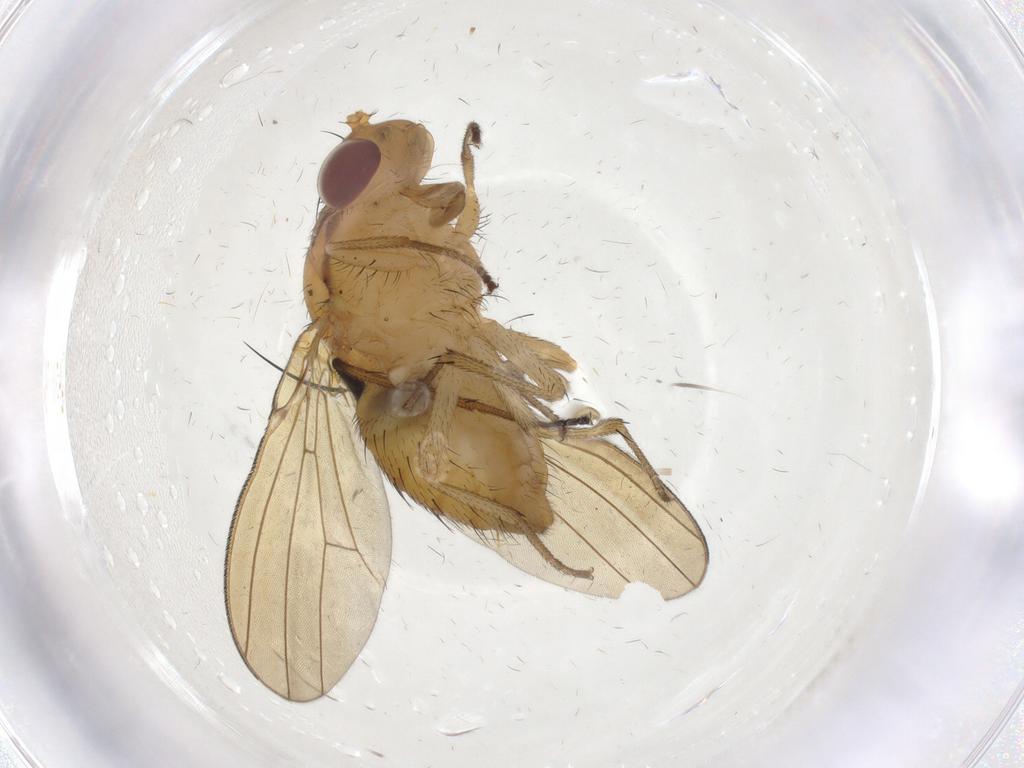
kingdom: Animalia
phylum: Arthropoda
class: Insecta
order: Diptera
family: Dolichopodidae
